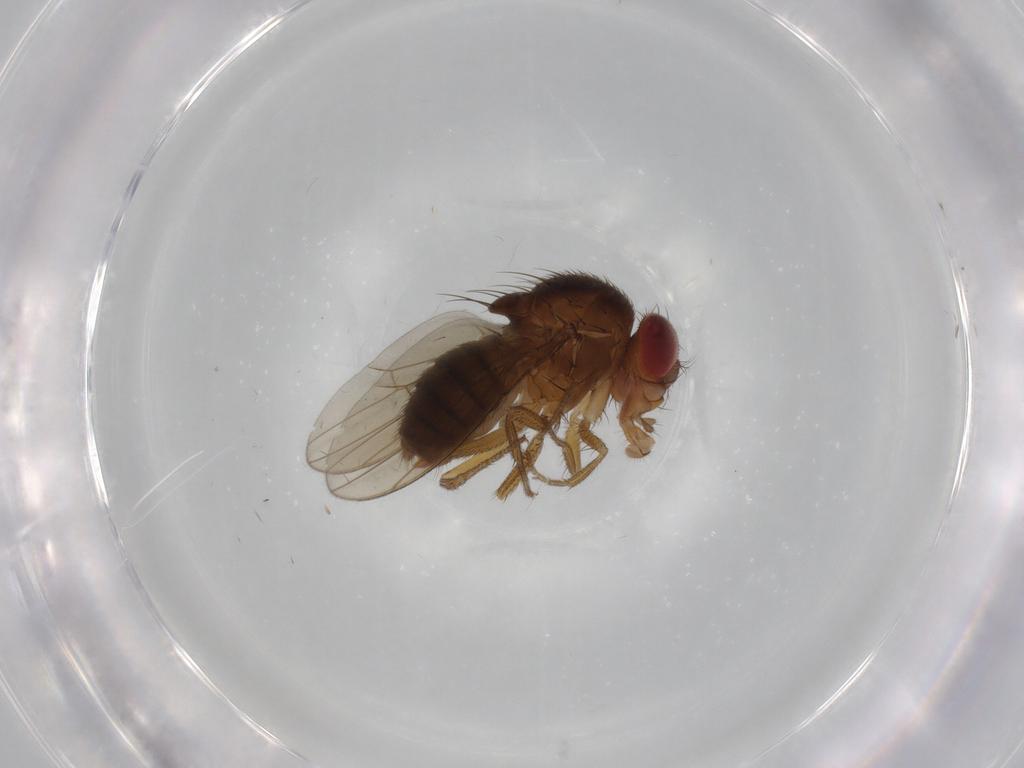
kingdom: Animalia
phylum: Arthropoda
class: Insecta
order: Diptera
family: Drosophilidae
